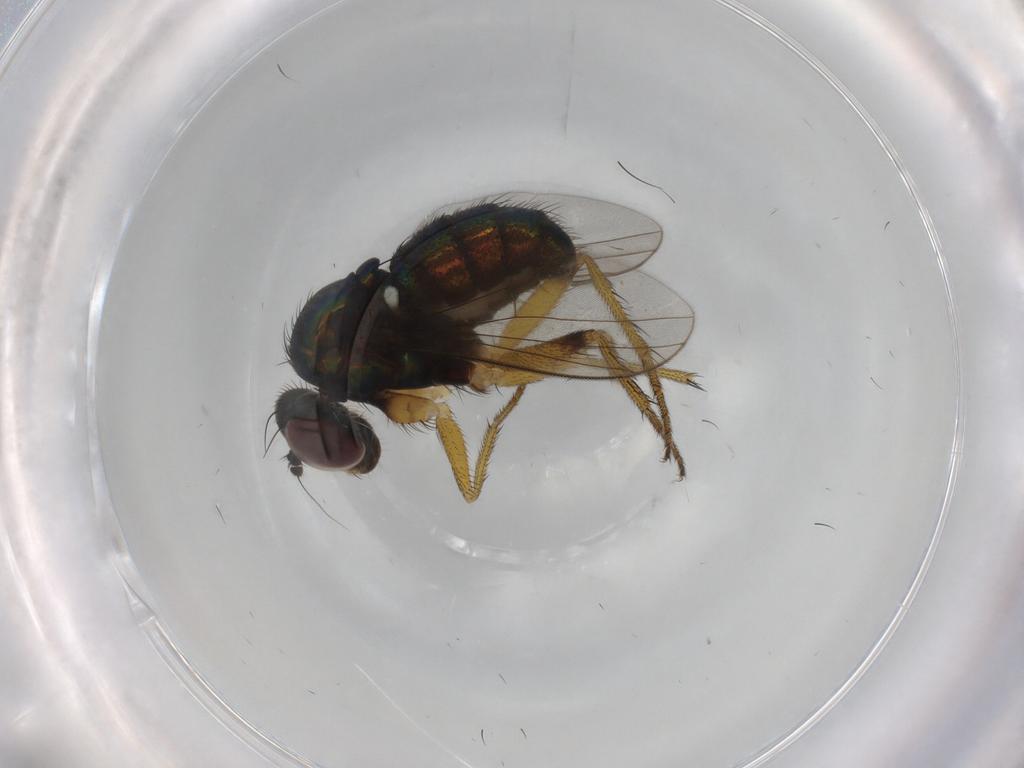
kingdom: Animalia
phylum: Arthropoda
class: Insecta
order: Diptera
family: Dolichopodidae
